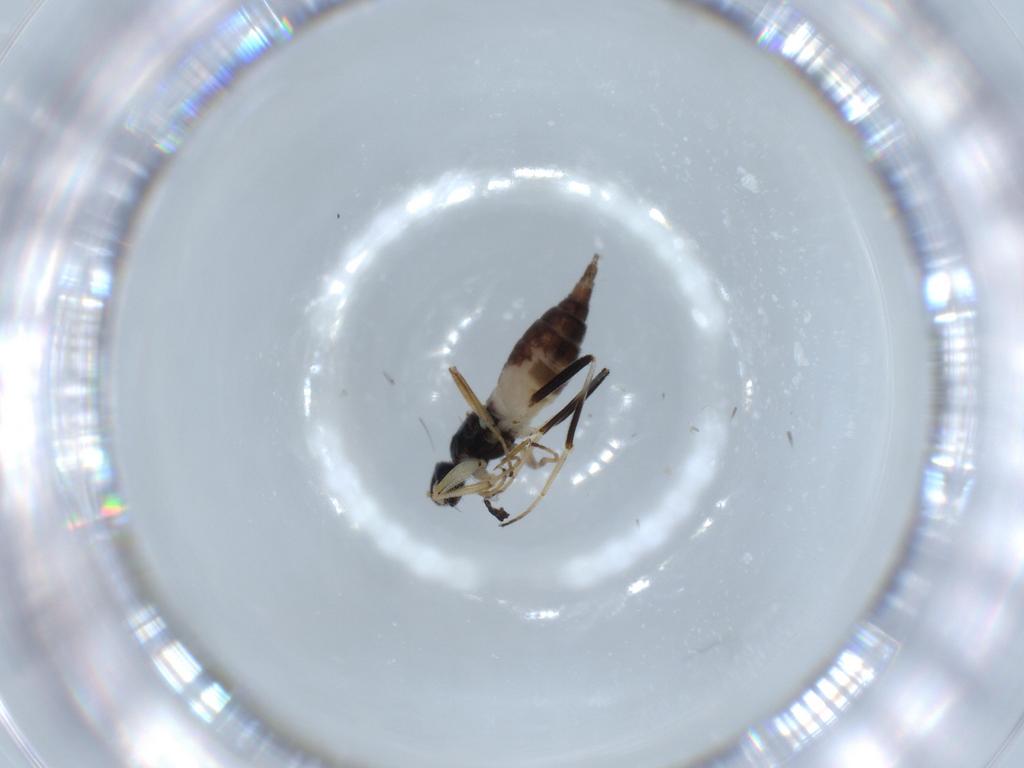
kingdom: Animalia
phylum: Arthropoda
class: Insecta
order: Diptera
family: Hybotidae
